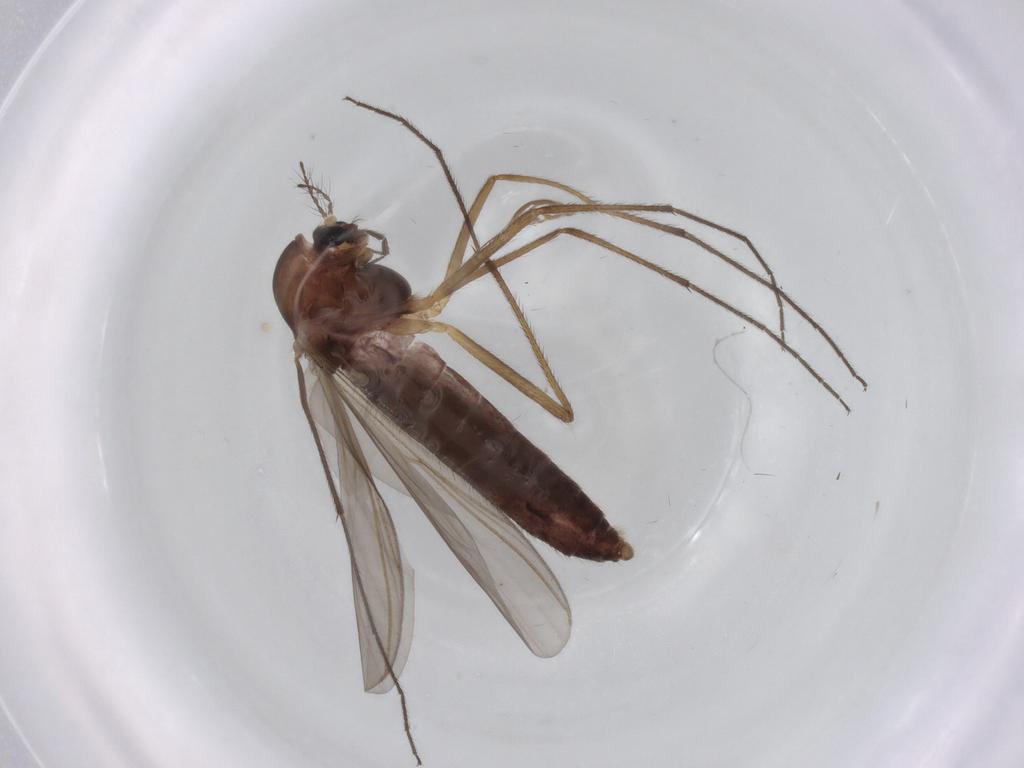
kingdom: Animalia
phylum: Arthropoda
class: Insecta
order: Diptera
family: Chironomidae
